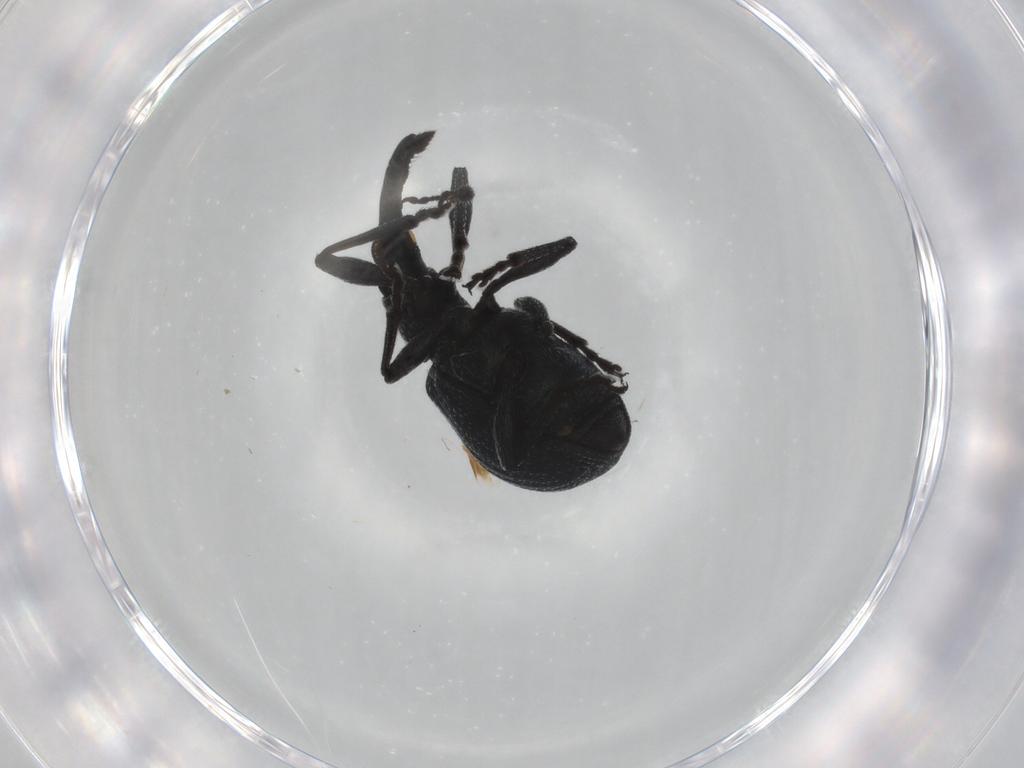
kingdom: Animalia
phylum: Arthropoda
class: Insecta
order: Coleoptera
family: Brentidae
